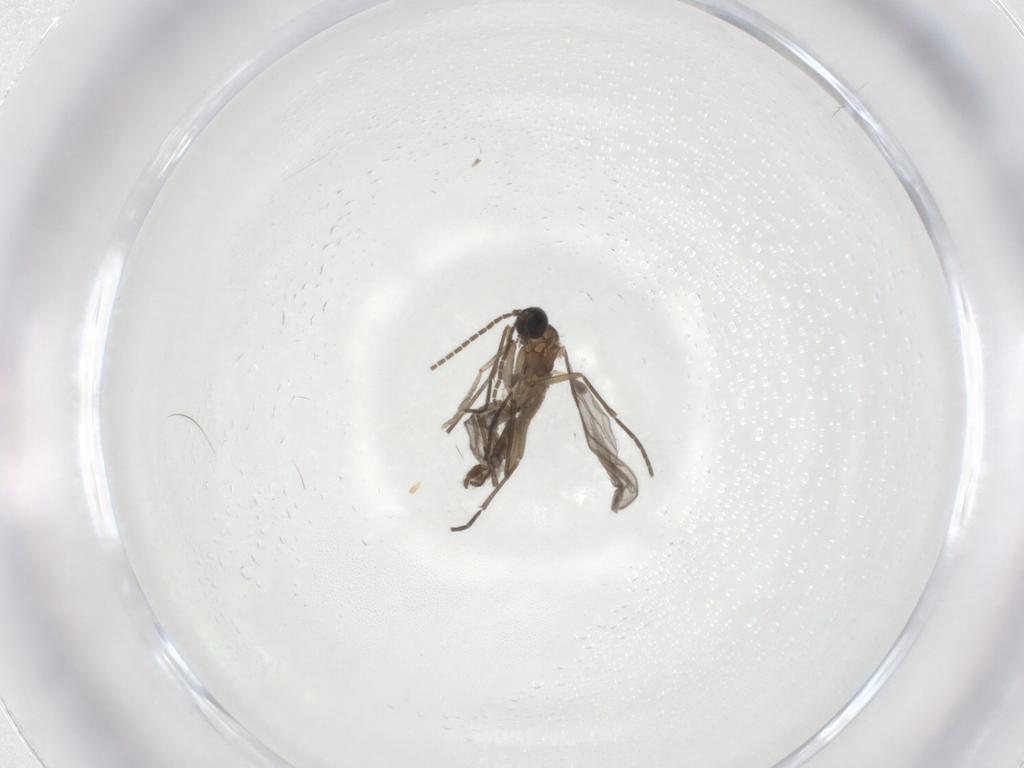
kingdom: Animalia
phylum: Arthropoda
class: Insecta
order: Diptera
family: Sciaridae
